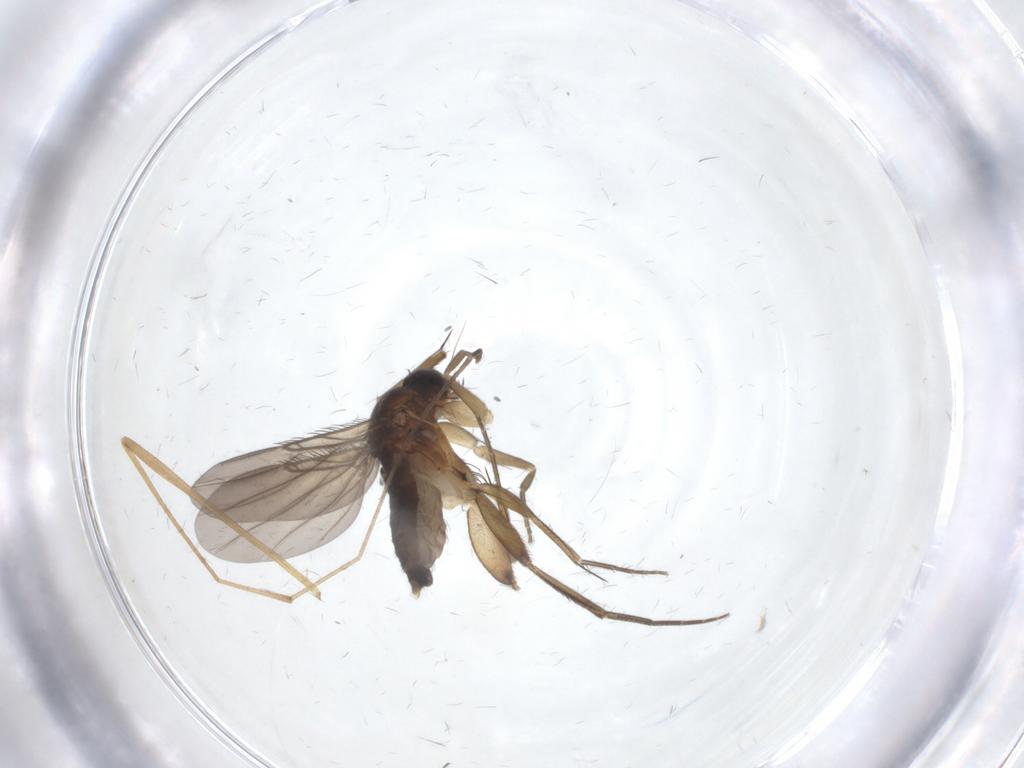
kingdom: Animalia
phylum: Arthropoda
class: Insecta
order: Diptera
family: Phoridae
